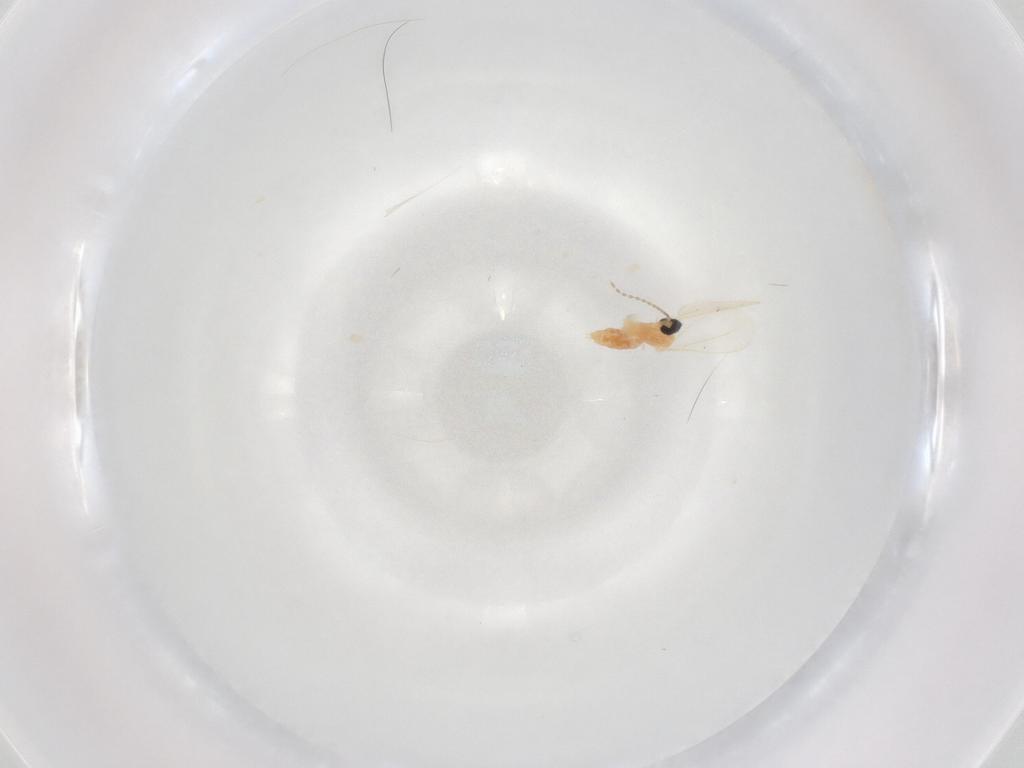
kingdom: Animalia
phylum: Arthropoda
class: Insecta
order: Diptera
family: Cecidomyiidae
